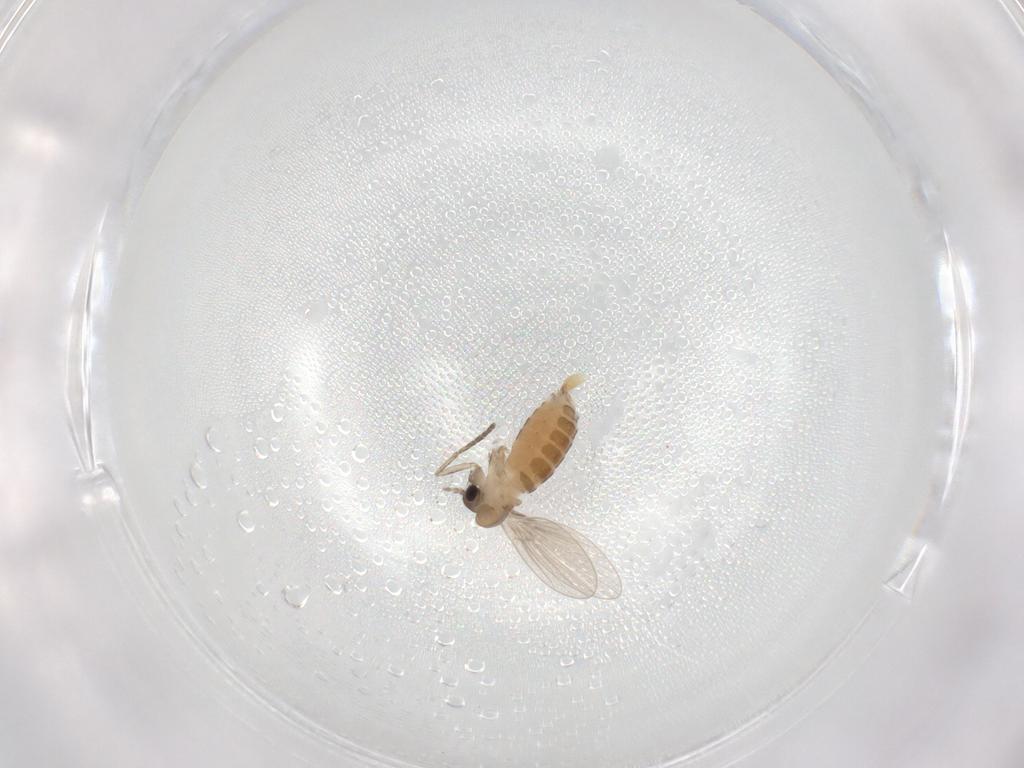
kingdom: Animalia
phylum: Arthropoda
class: Insecta
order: Diptera
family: Psychodidae
